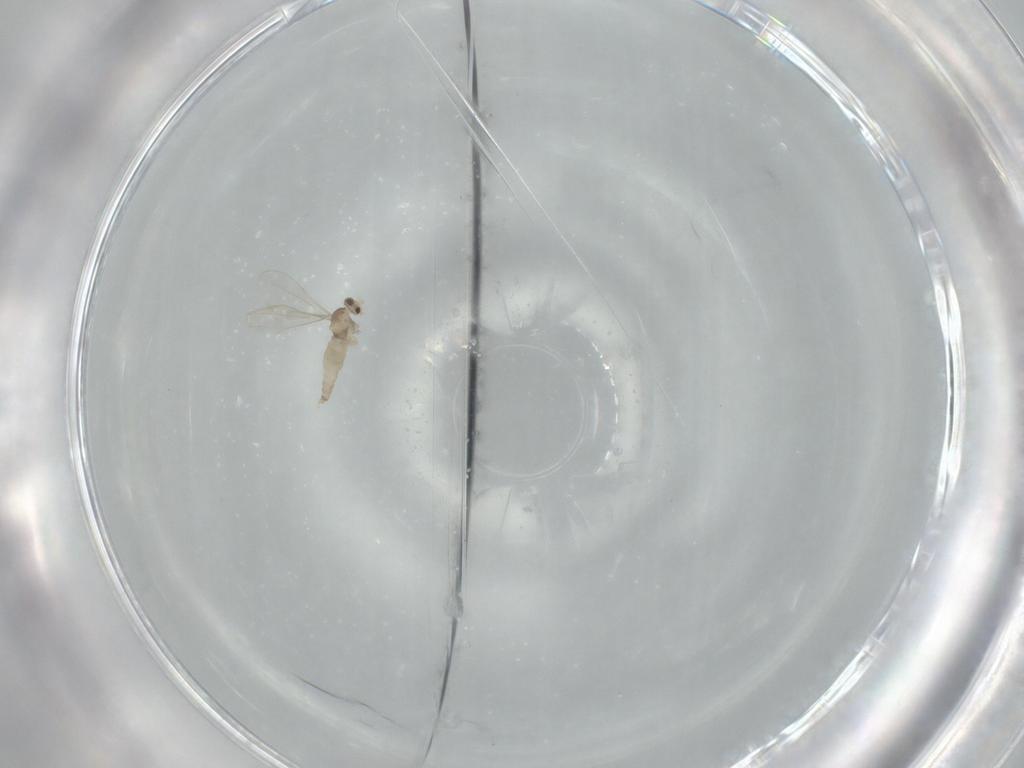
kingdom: Animalia
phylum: Arthropoda
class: Insecta
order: Diptera
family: Cecidomyiidae
